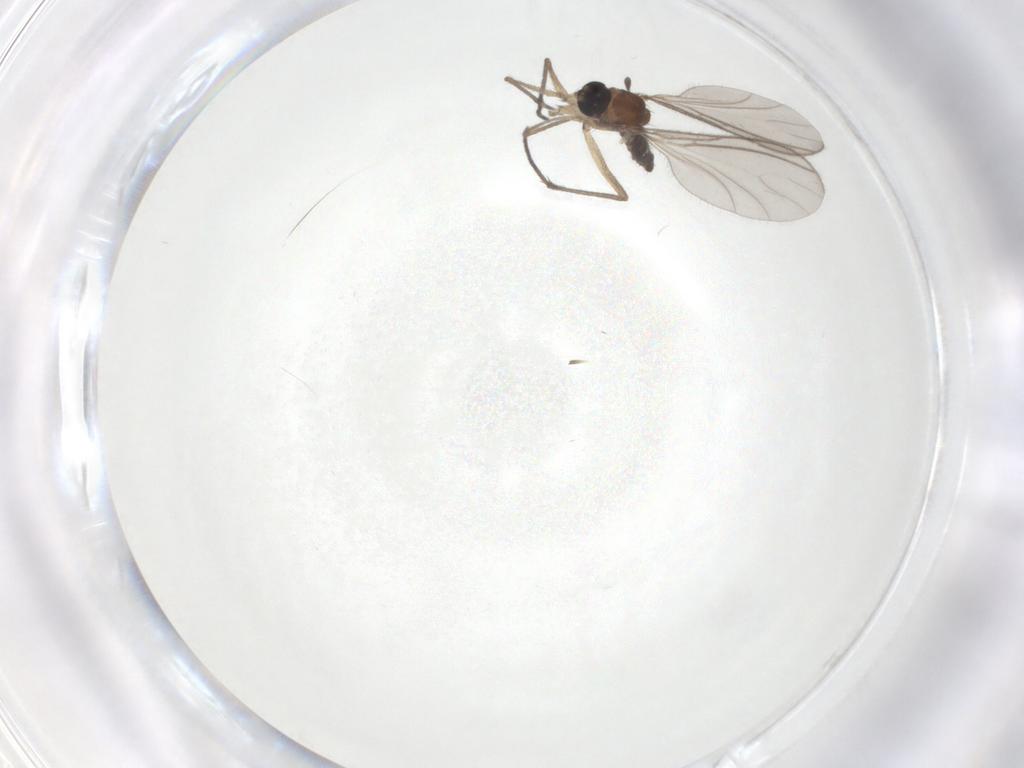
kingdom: Animalia
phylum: Arthropoda
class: Insecta
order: Diptera
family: Sciaridae
